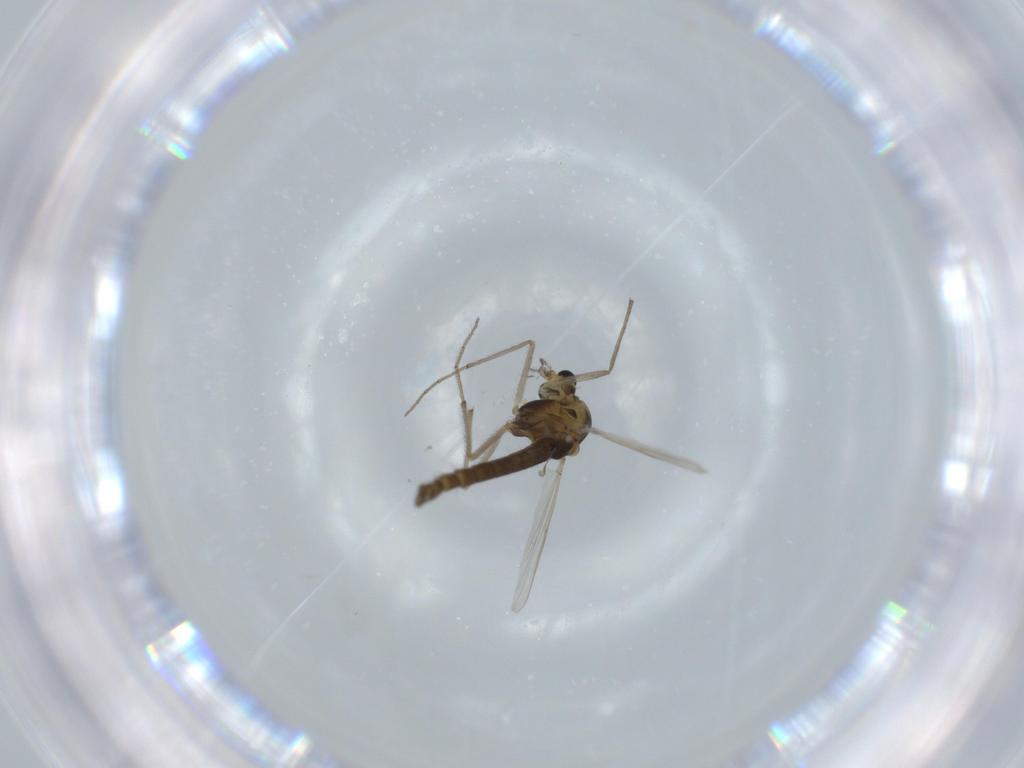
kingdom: Animalia
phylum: Arthropoda
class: Insecta
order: Diptera
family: Chironomidae
